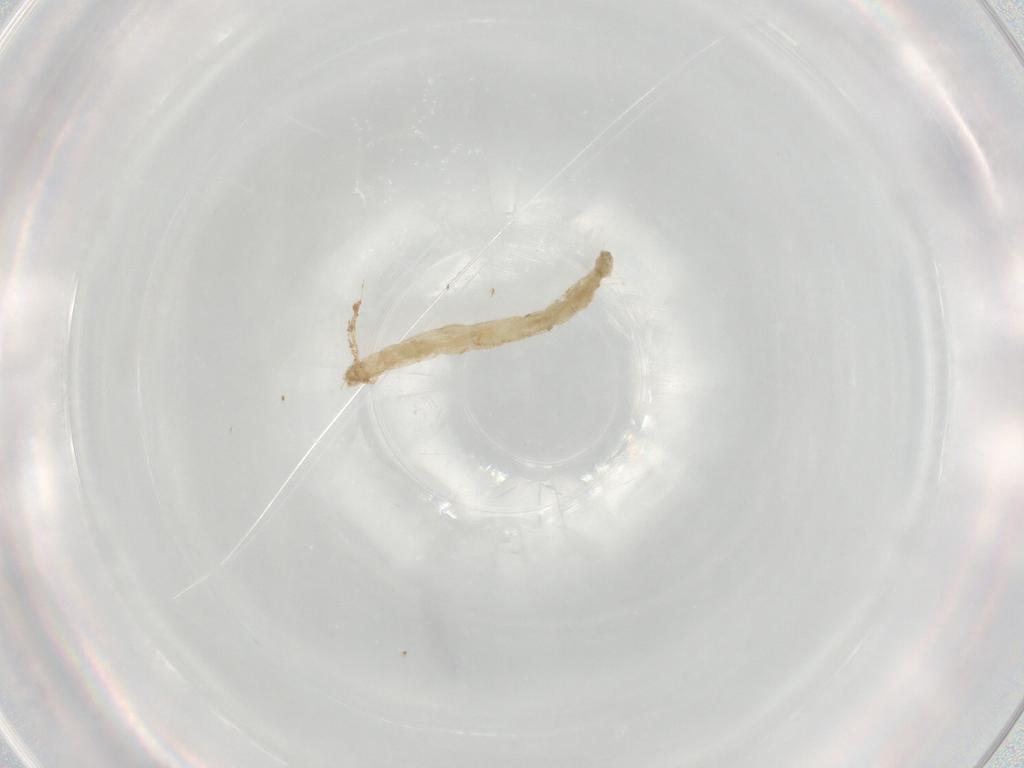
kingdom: Animalia
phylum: Arthropoda
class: Insecta
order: Diptera
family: Chironomidae
